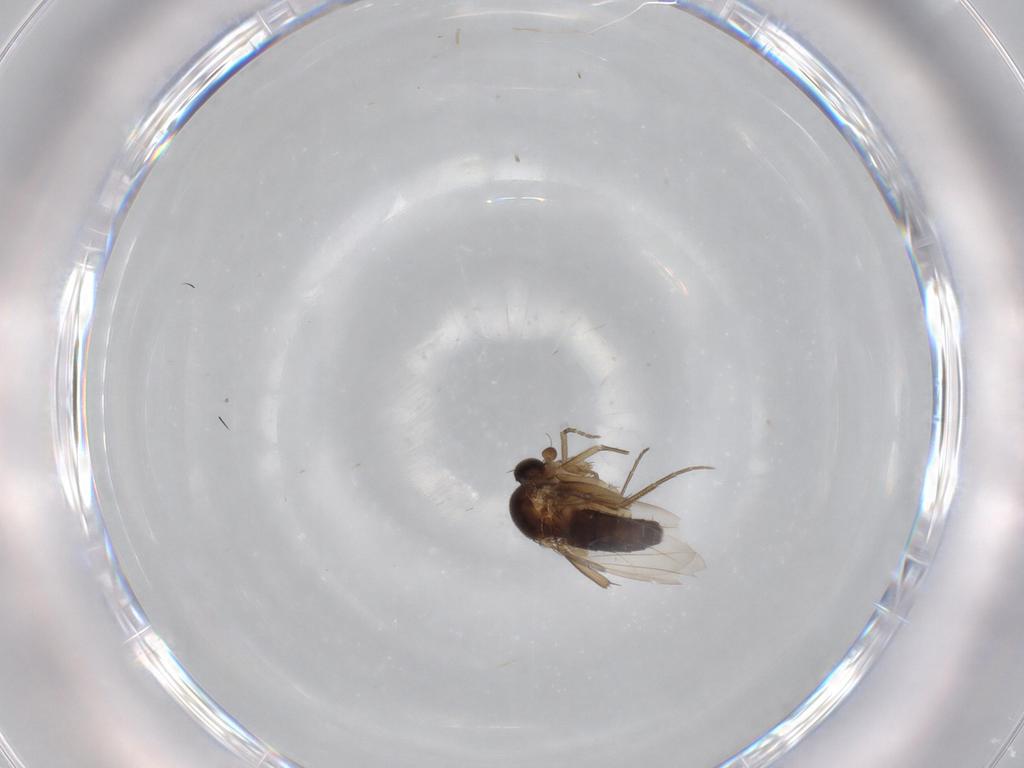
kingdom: Animalia
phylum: Arthropoda
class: Insecta
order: Diptera
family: Phoridae
